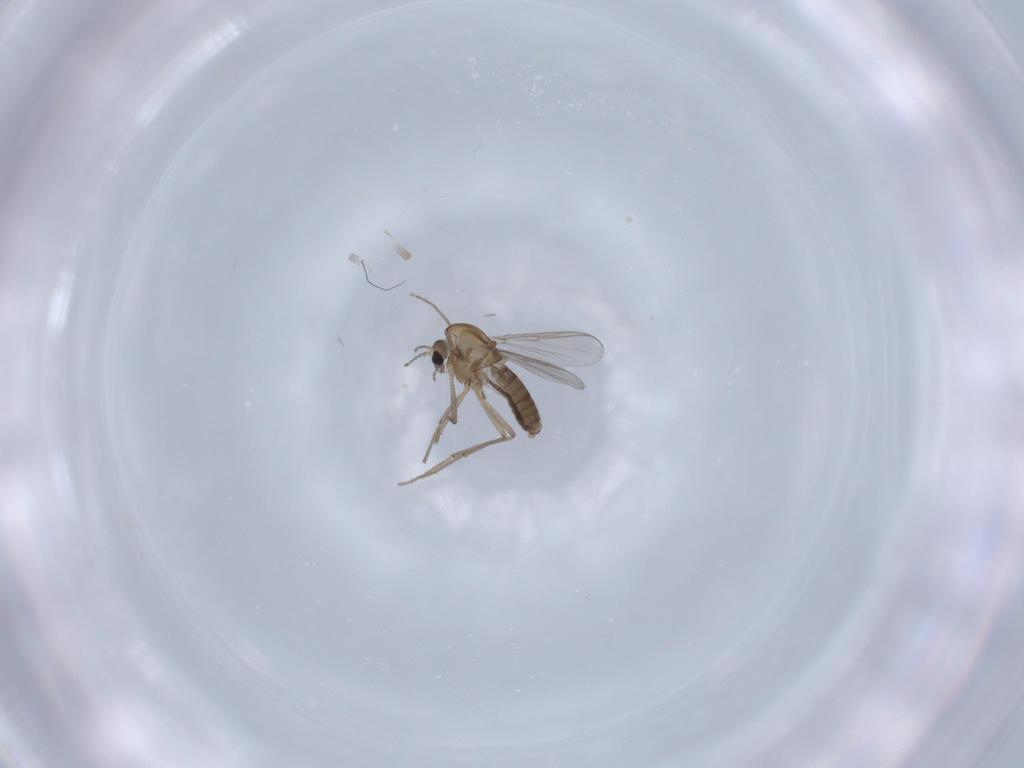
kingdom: Animalia
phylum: Arthropoda
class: Insecta
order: Diptera
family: Chironomidae
